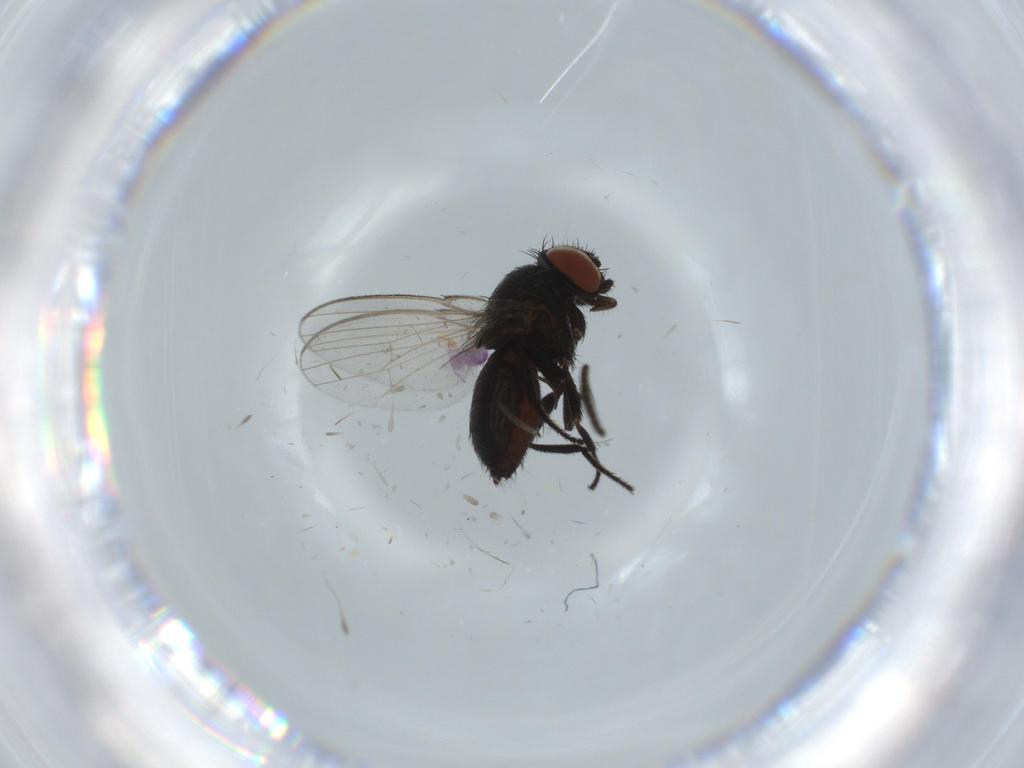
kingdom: Animalia
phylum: Arthropoda
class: Insecta
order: Diptera
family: Milichiidae
